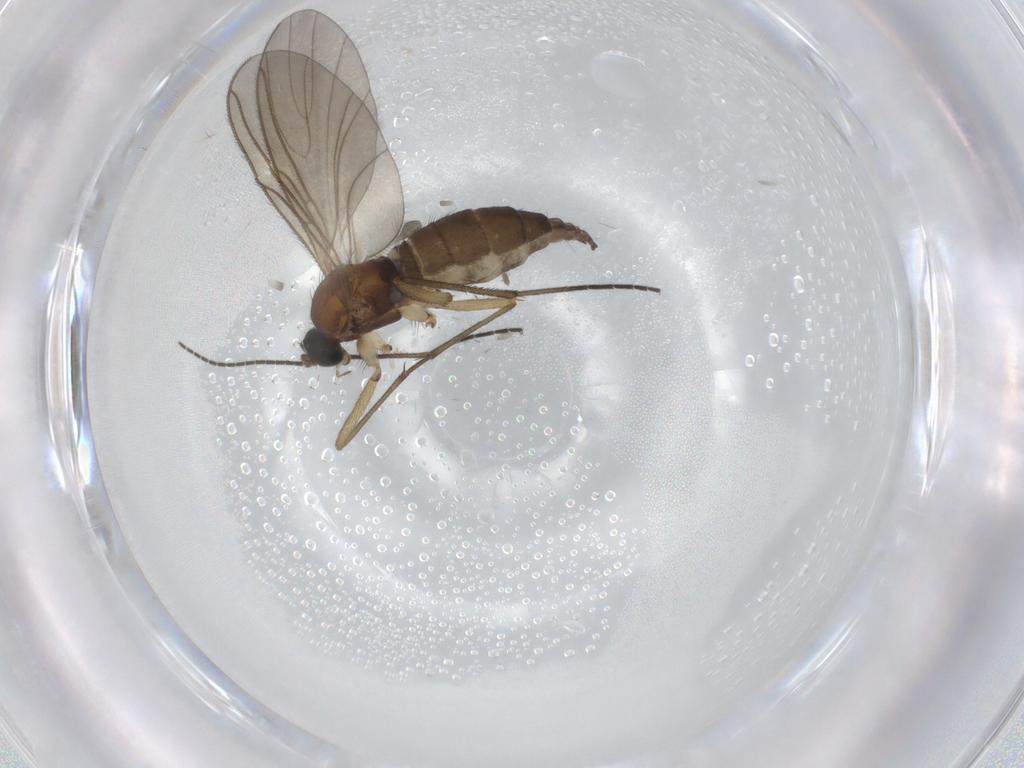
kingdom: Animalia
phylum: Arthropoda
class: Insecta
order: Diptera
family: Sciaridae
